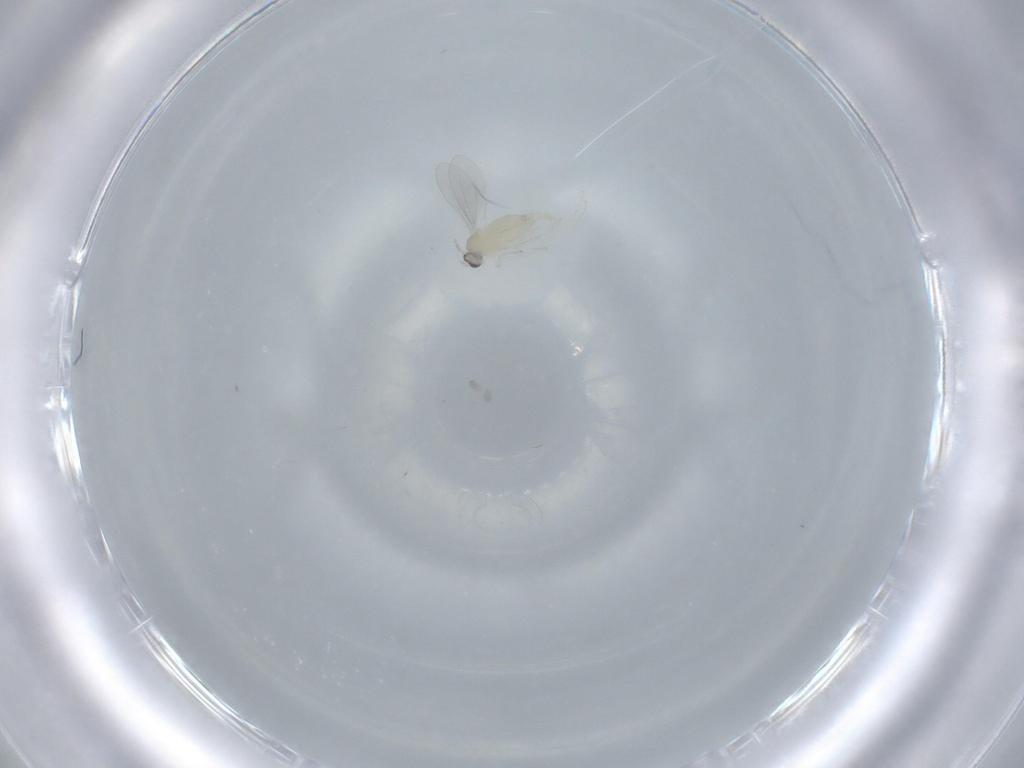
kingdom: Animalia
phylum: Arthropoda
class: Insecta
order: Diptera
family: Cecidomyiidae
